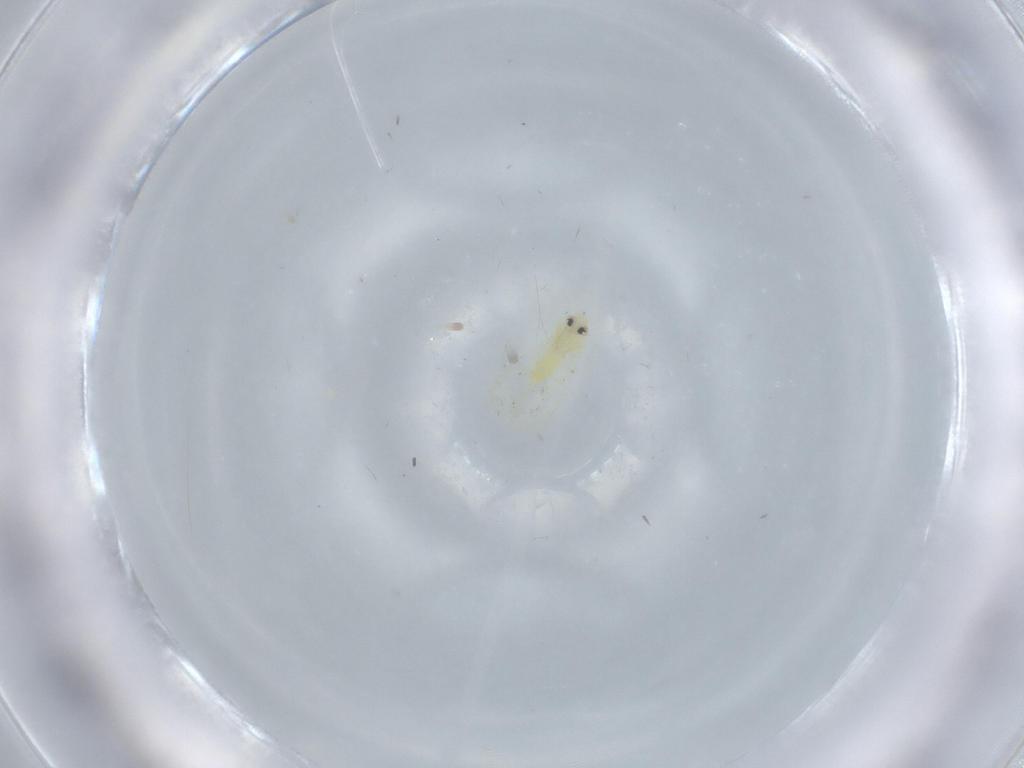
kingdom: Animalia
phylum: Arthropoda
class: Insecta
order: Hemiptera
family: Aleyrodidae
